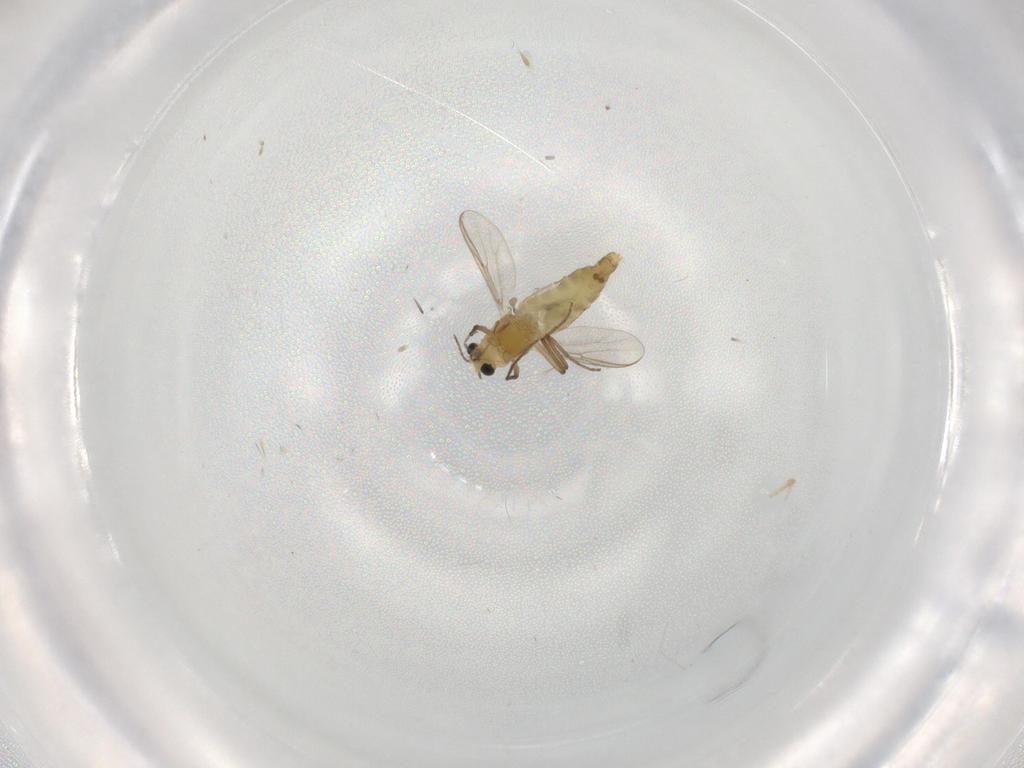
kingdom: Animalia
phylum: Arthropoda
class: Insecta
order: Diptera
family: Chironomidae
